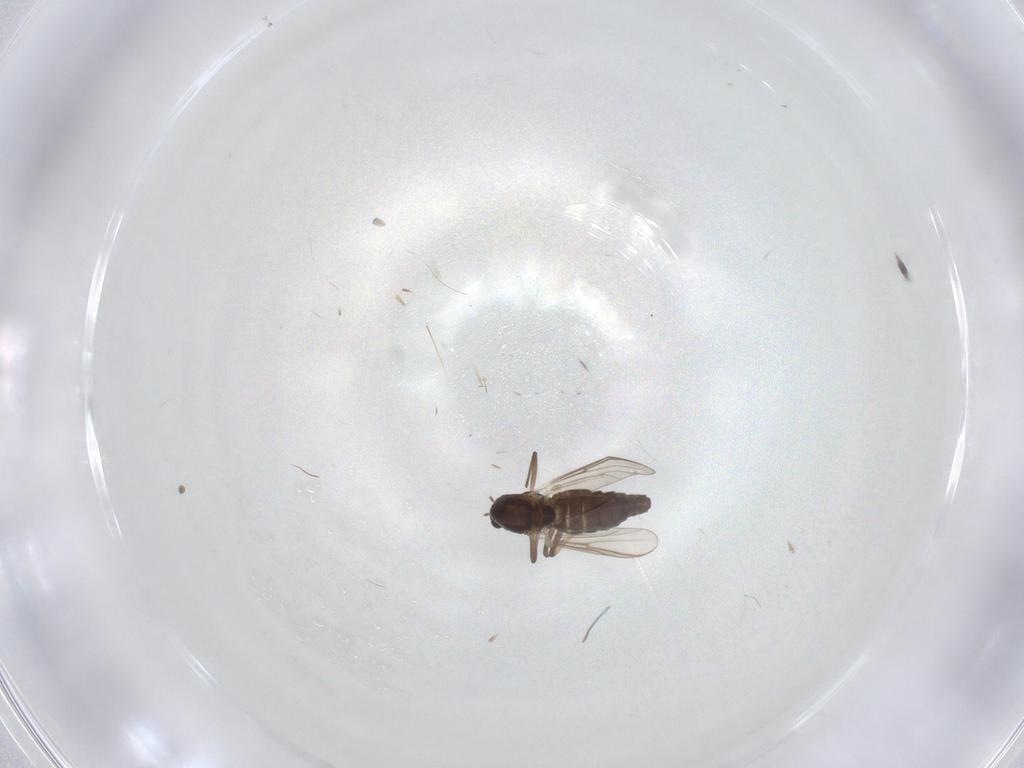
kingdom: Animalia
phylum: Arthropoda
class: Insecta
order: Diptera
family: Chironomidae
